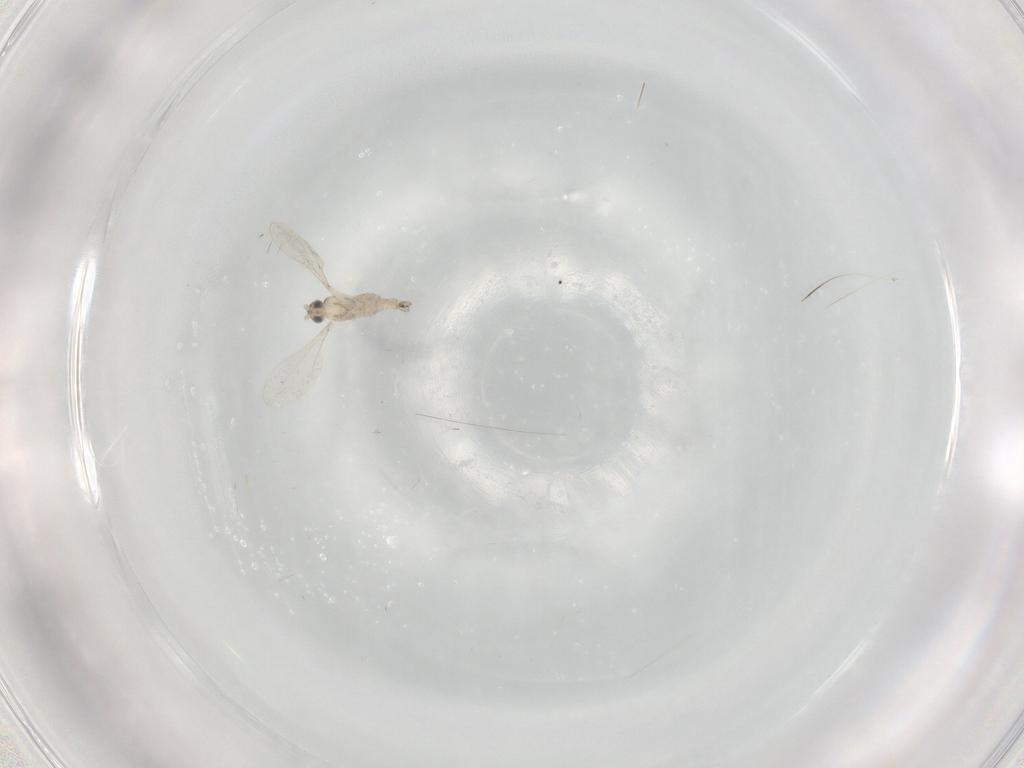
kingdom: Animalia
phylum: Arthropoda
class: Insecta
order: Diptera
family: Cecidomyiidae
